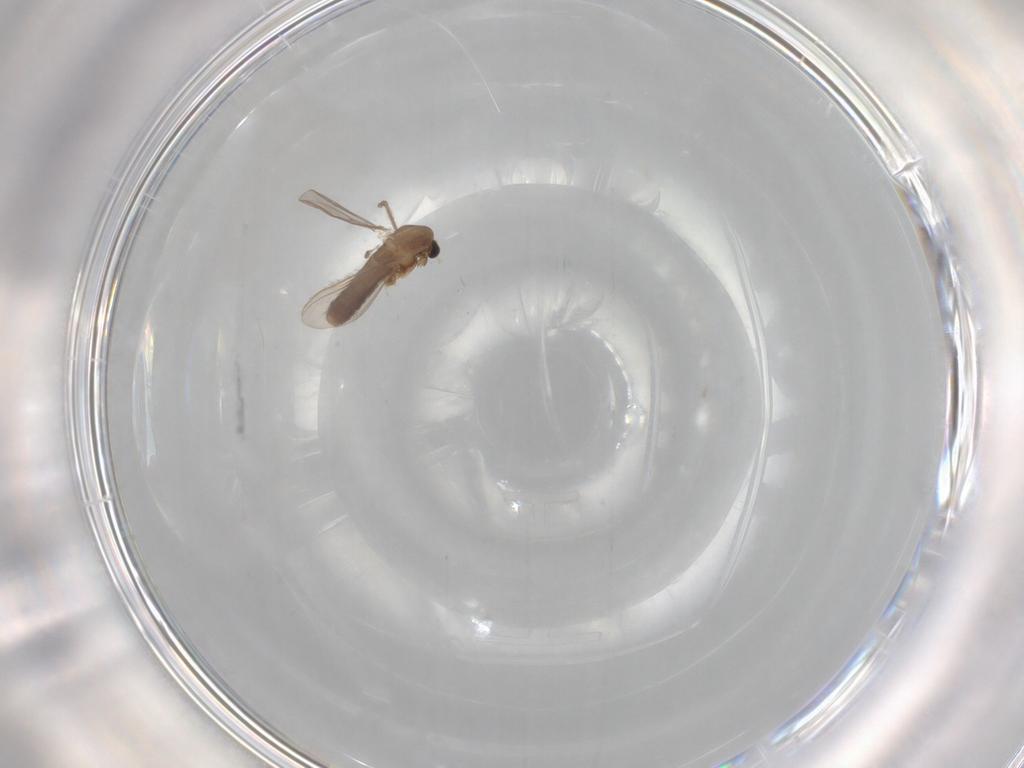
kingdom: Animalia
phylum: Arthropoda
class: Insecta
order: Diptera
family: Chironomidae
